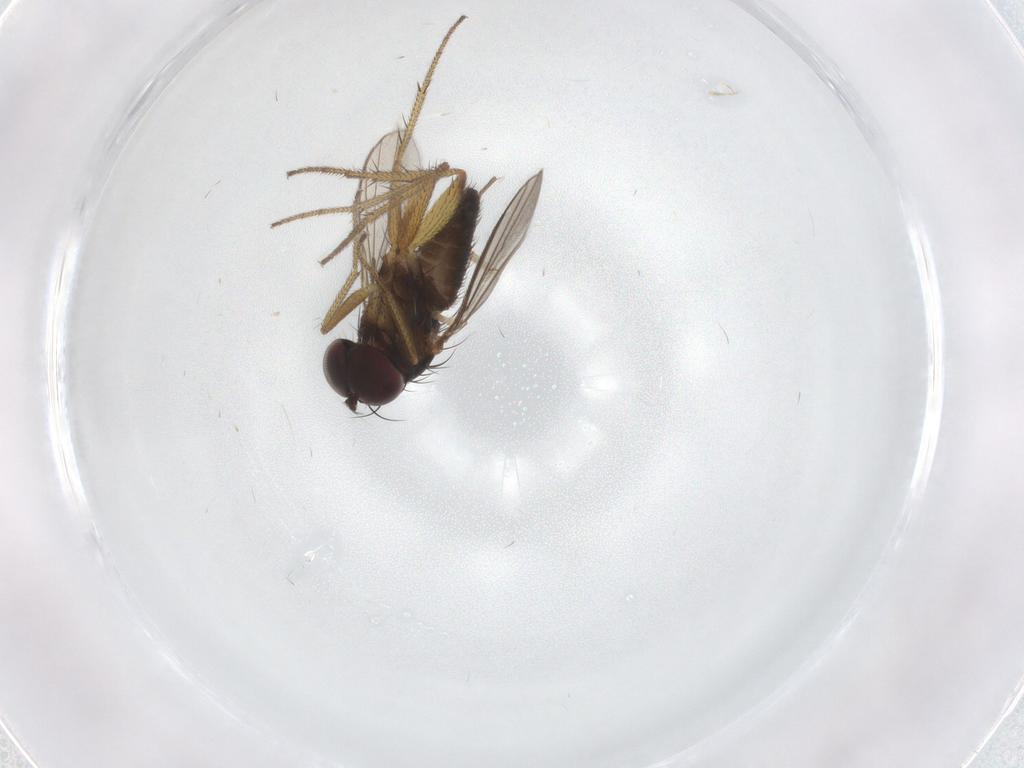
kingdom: Animalia
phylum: Arthropoda
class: Insecta
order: Diptera
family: Chironomidae
